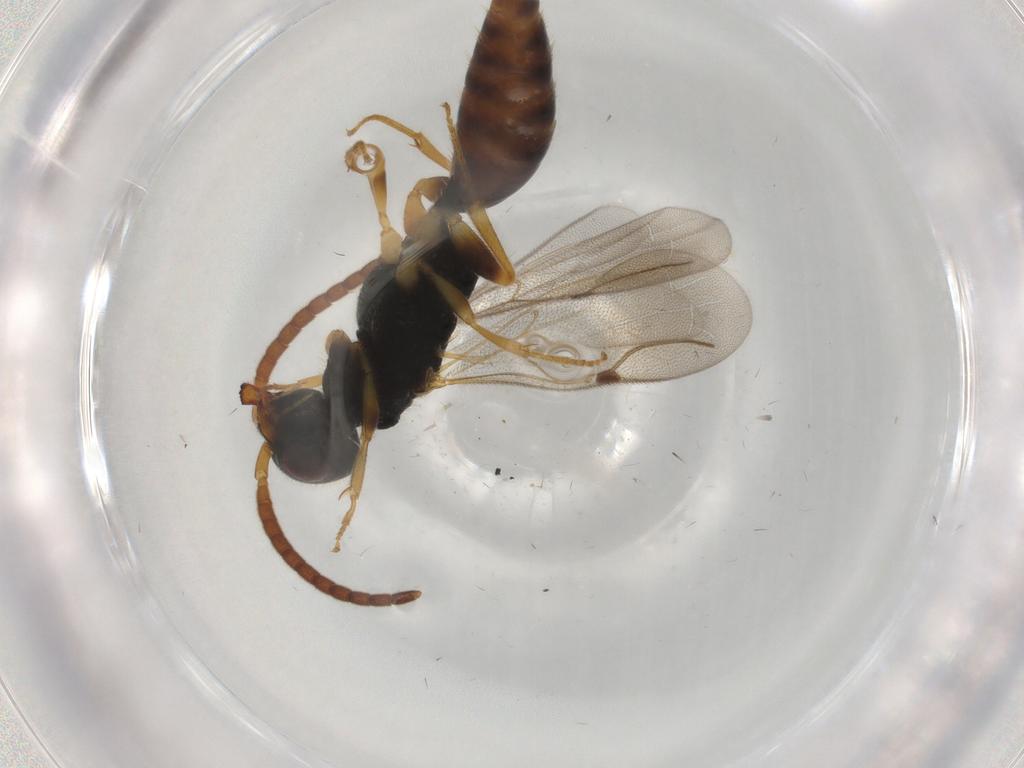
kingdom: Animalia
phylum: Arthropoda
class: Insecta
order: Hymenoptera
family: Bethylidae
